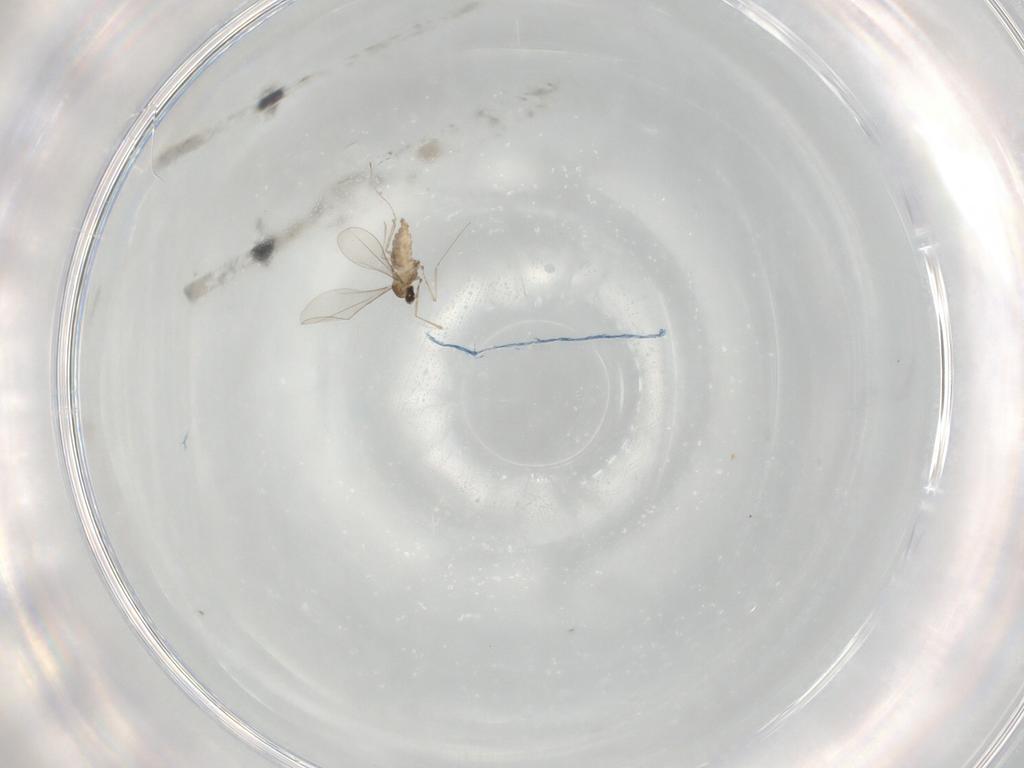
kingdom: Animalia
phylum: Arthropoda
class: Insecta
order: Diptera
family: Cecidomyiidae
